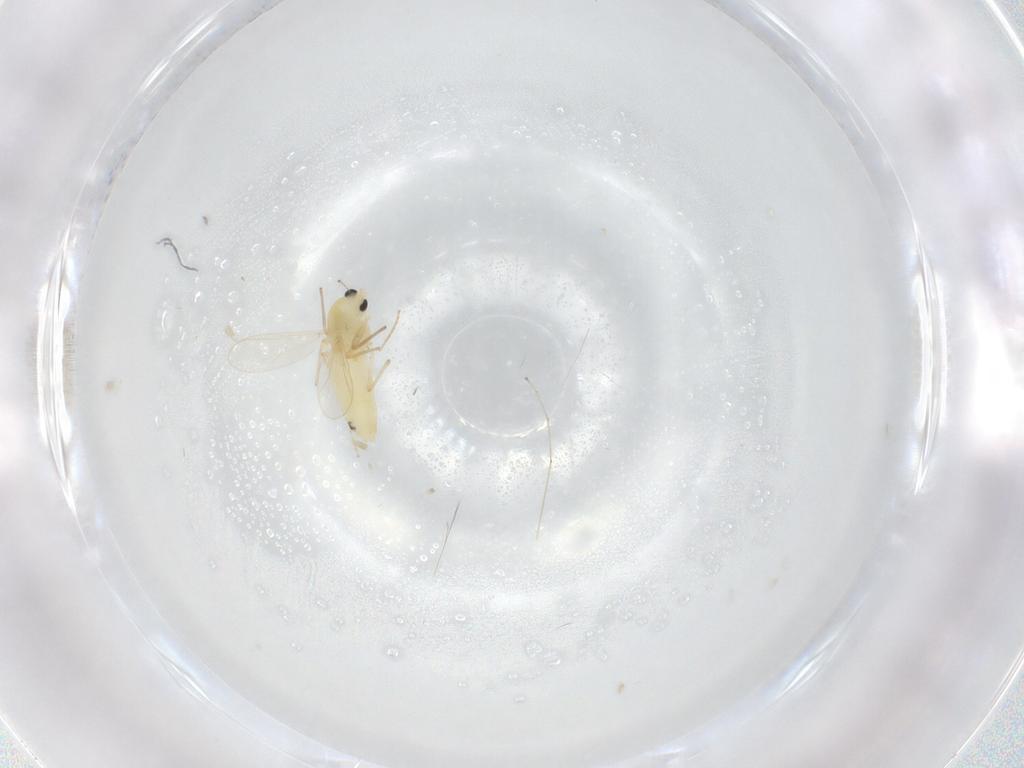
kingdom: Animalia
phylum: Arthropoda
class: Insecta
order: Diptera
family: Chironomidae
